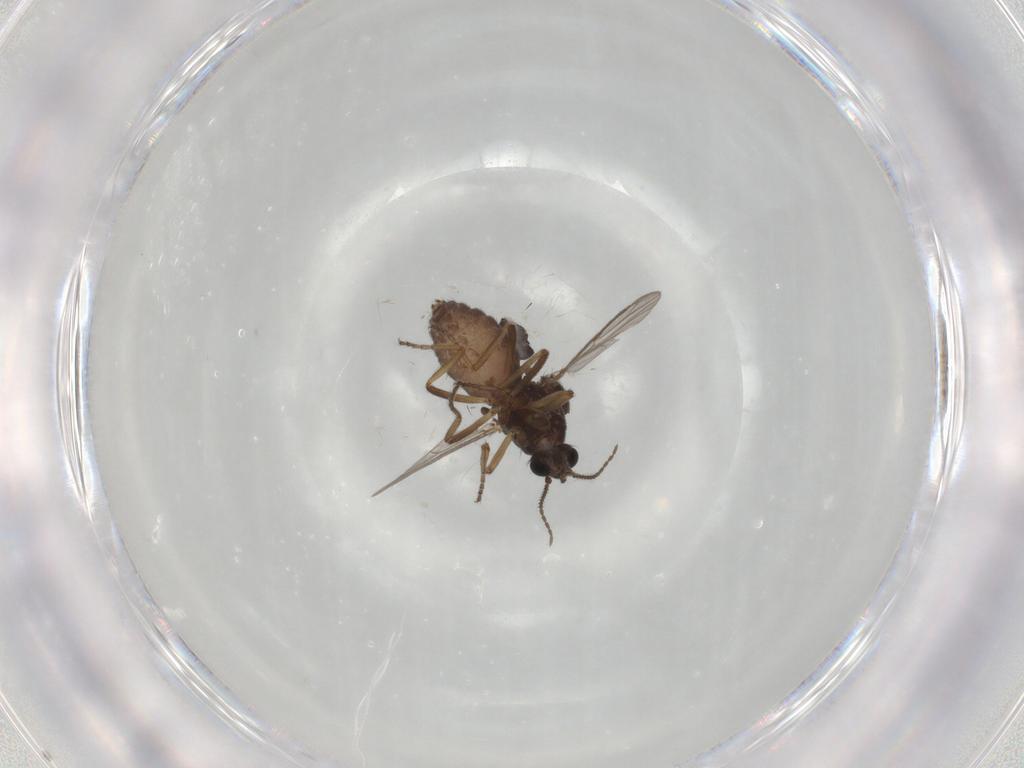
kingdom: Animalia
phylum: Arthropoda
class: Insecta
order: Diptera
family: Ceratopogonidae
